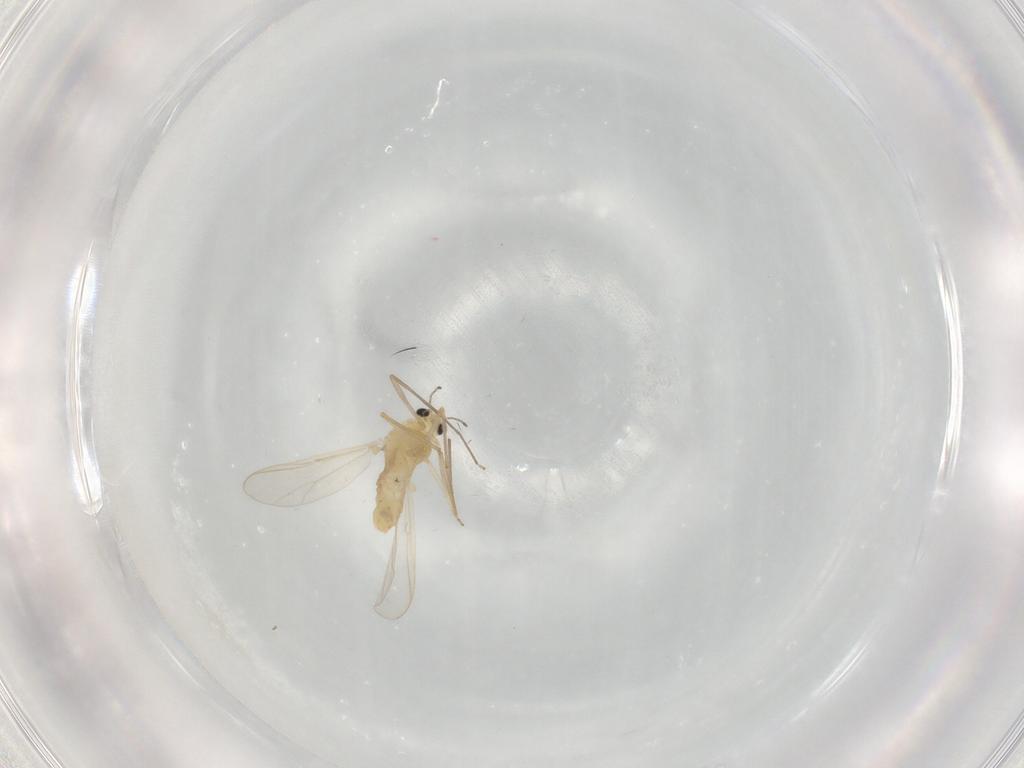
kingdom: Animalia
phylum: Arthropoda
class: Insecta
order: Diptera
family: Chironomidae
